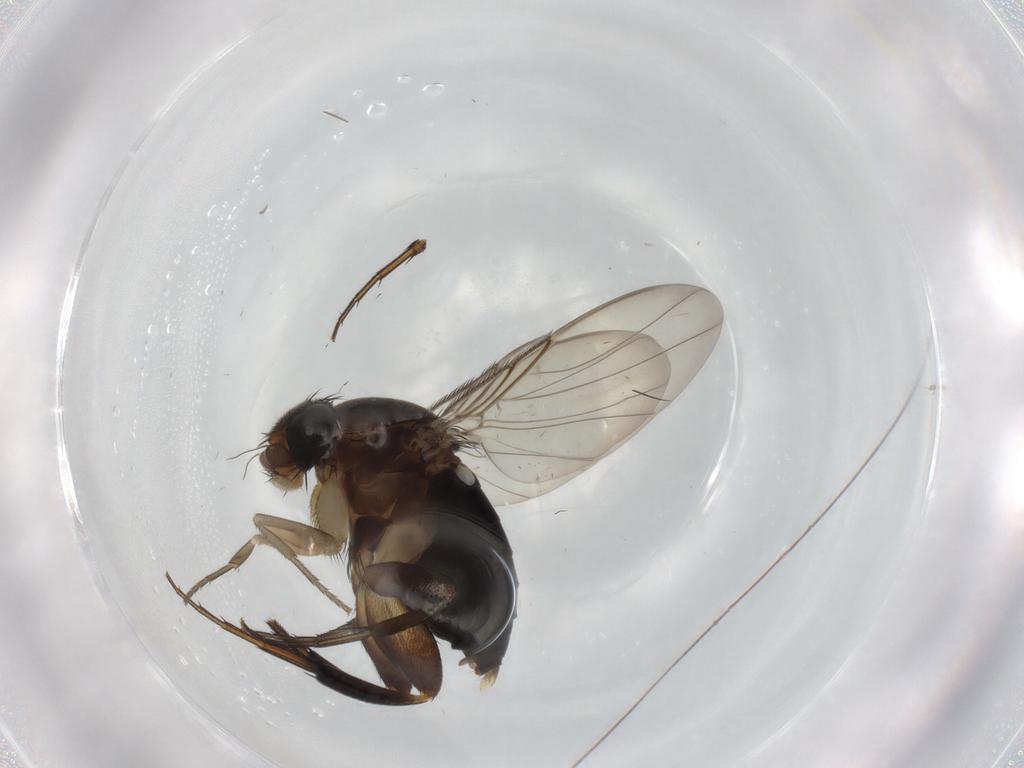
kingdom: Animalia
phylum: Arthropoda
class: Insecta
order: Diptera
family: Phoridae
